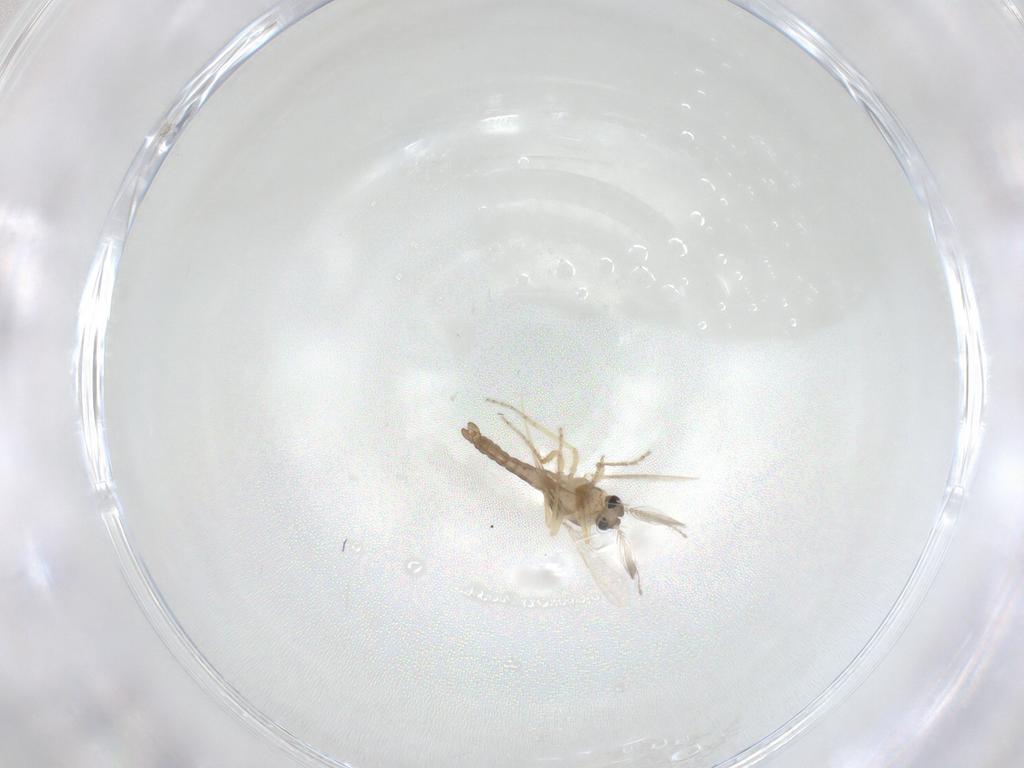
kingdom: Animalia
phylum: Arthropoda
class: Insecta
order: Diptera
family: Ceratopogonidae
